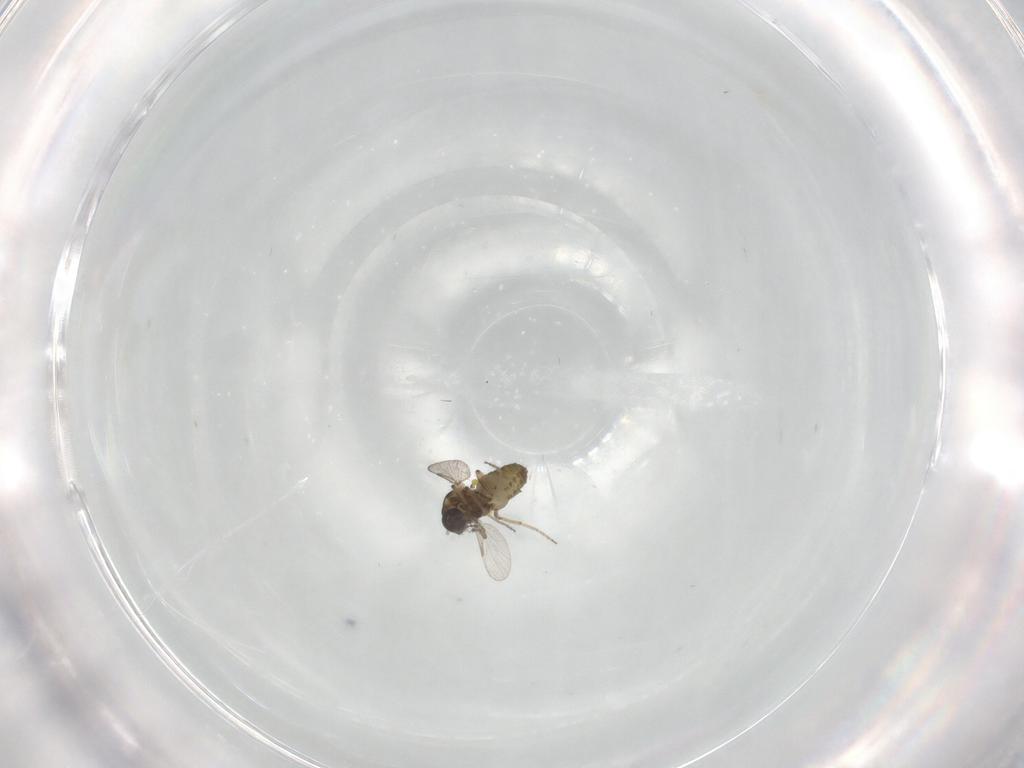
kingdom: Animalia
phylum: Arthropoda
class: Insecta
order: Diptera
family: Ceratopogonidae
